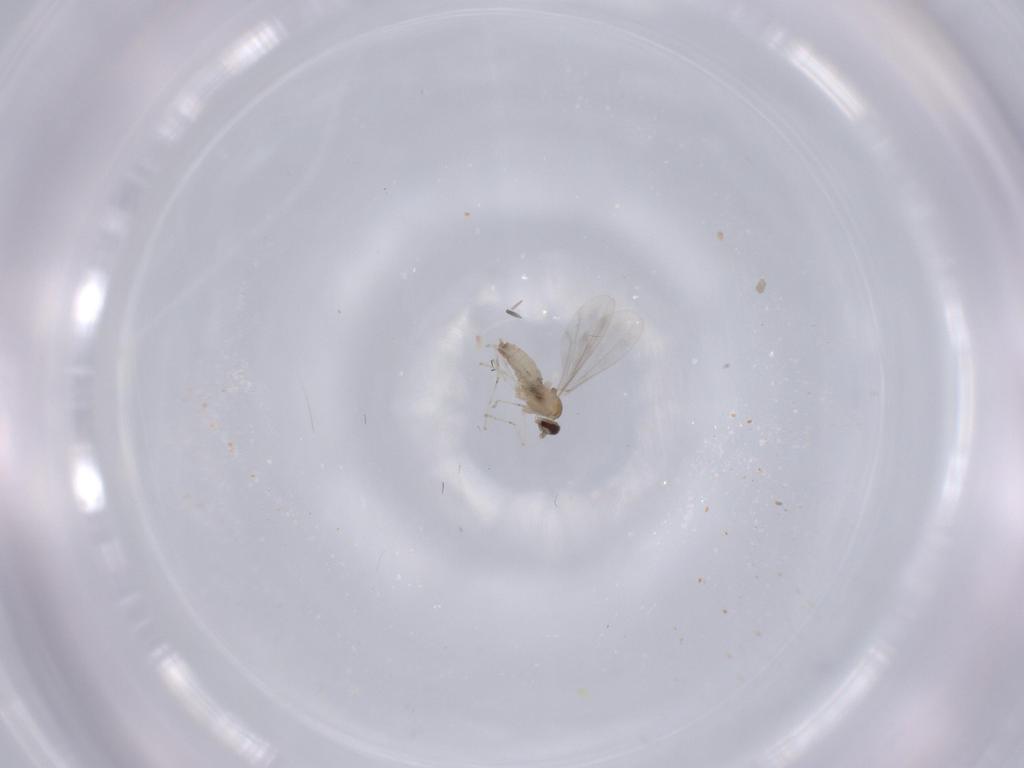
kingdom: Animalia
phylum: Arthropoda
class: Insecta
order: Diptera
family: Cecidomyiidae
